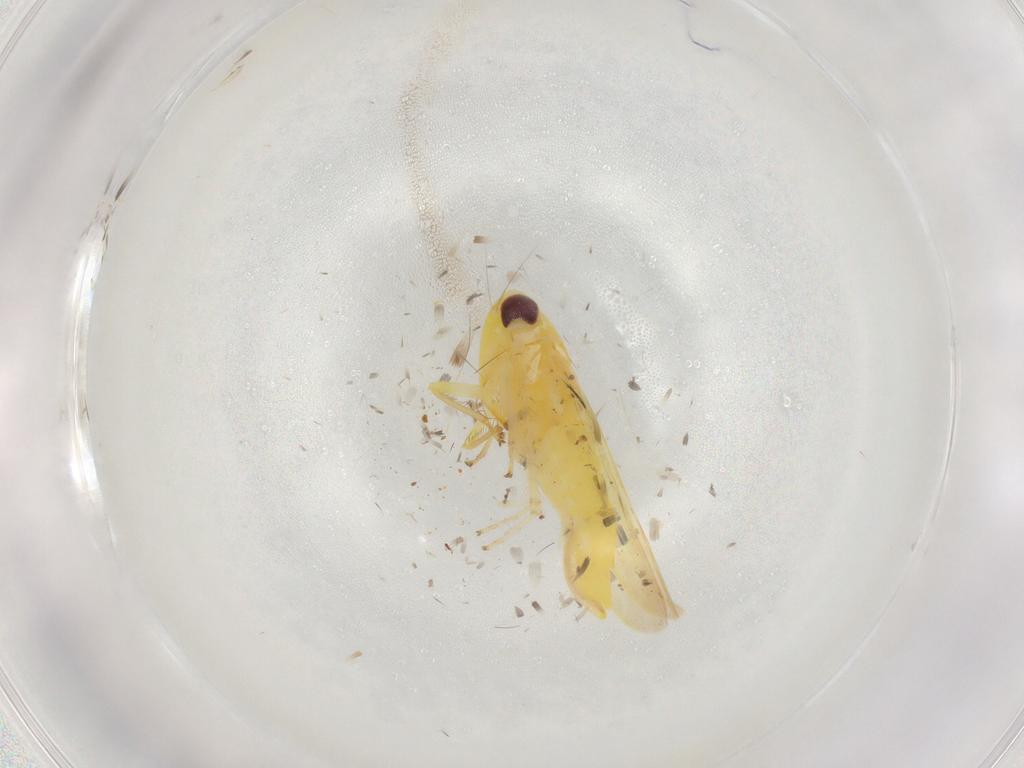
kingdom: Animalia
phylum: Arthropoda
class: Insecta
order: Hemiptera
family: Cicadellidae
